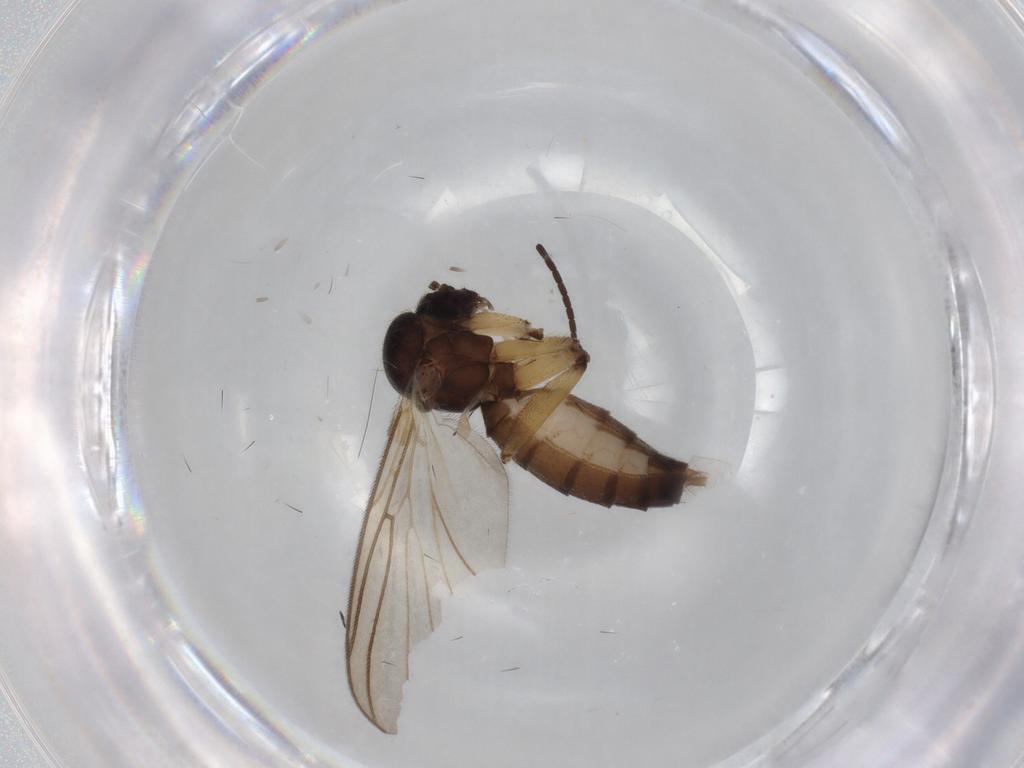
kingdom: Animalia
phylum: Arthropoda
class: Insecta
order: Diptera
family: Mycetophilidae
